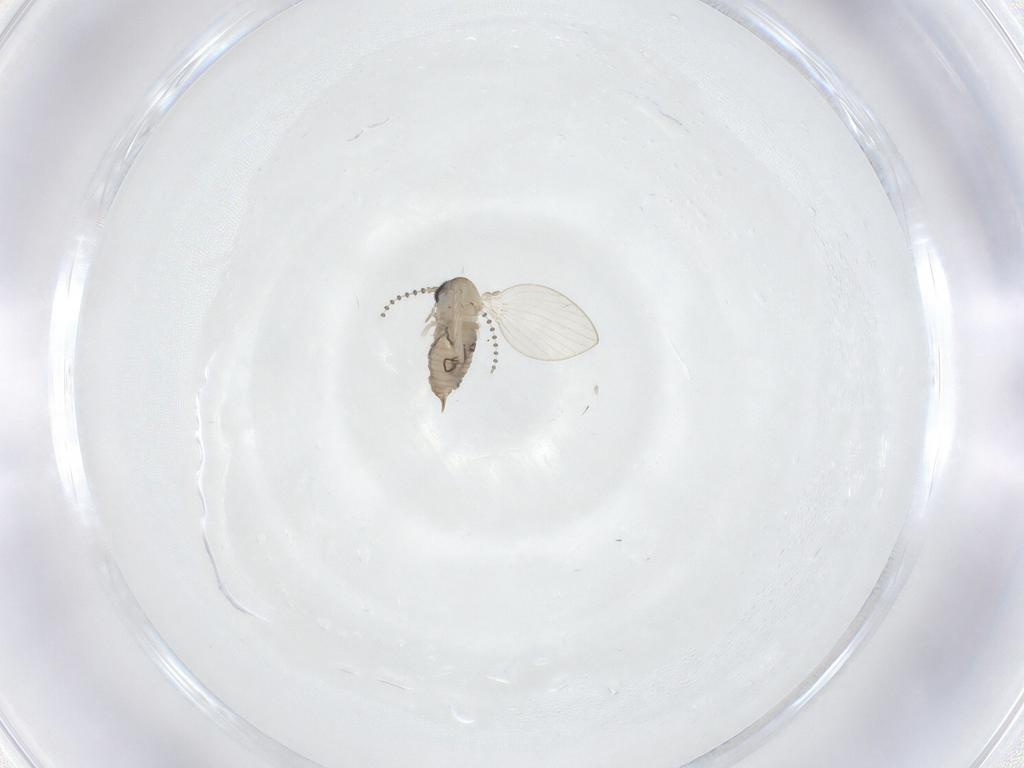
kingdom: Animalia
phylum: Arthropoda
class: Insecta
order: Diptera
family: Psychodidae
